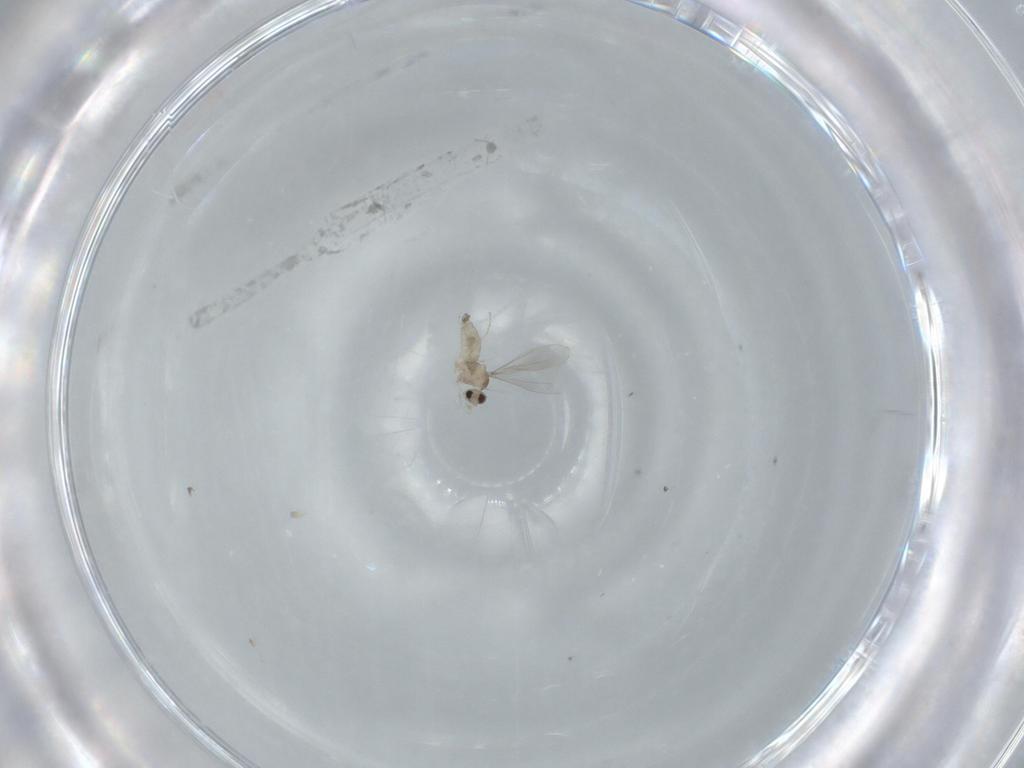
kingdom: Animalia
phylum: Arthropoda
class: Insecta
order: Diptera
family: Cecidomyiidae
